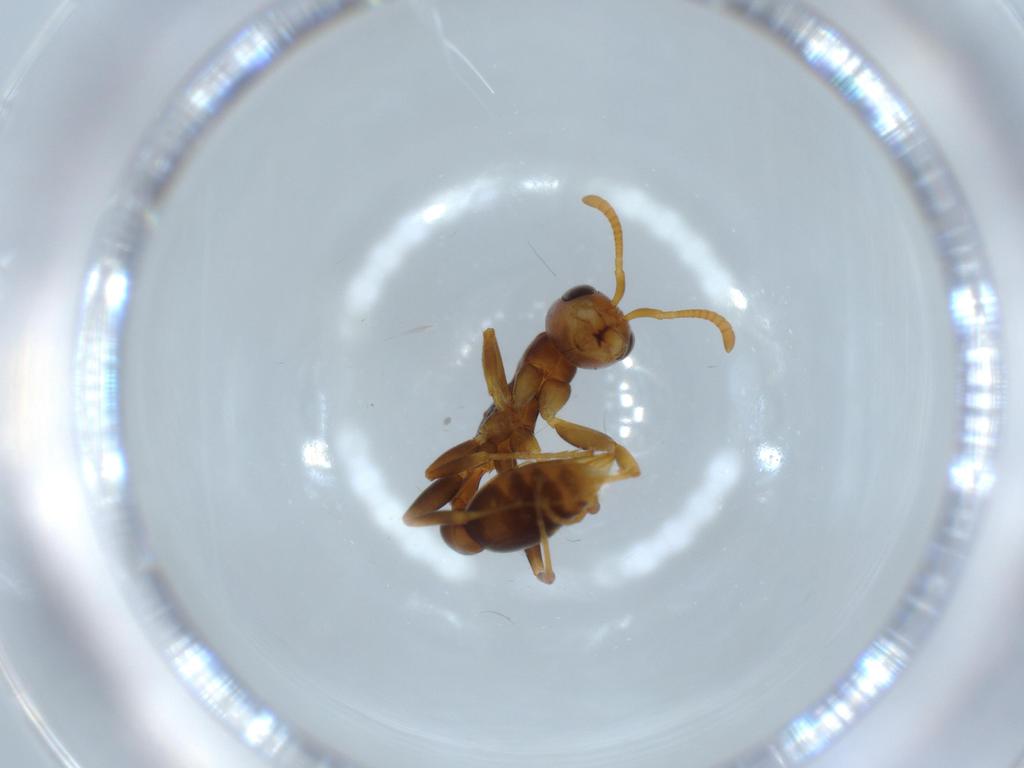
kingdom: Animalia
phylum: Arthropoda
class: Insecta
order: Hymenoptera
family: Formicidae
